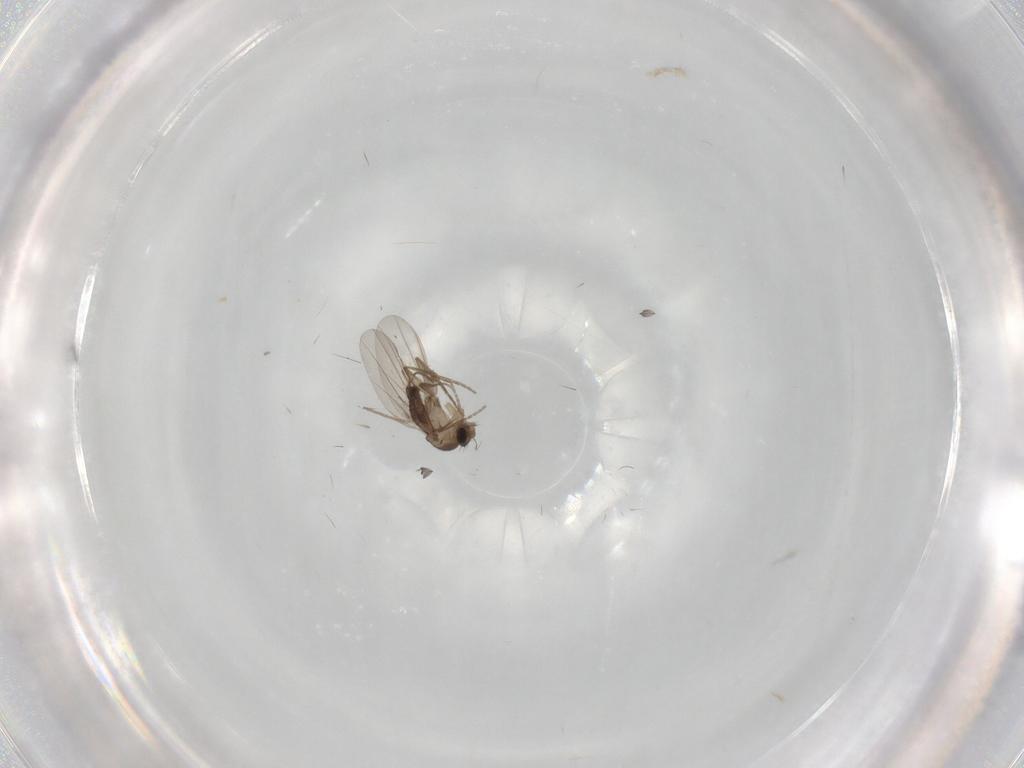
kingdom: Animalia
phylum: Arthropoda
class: Insecta
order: Diptera
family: Chironomidae
